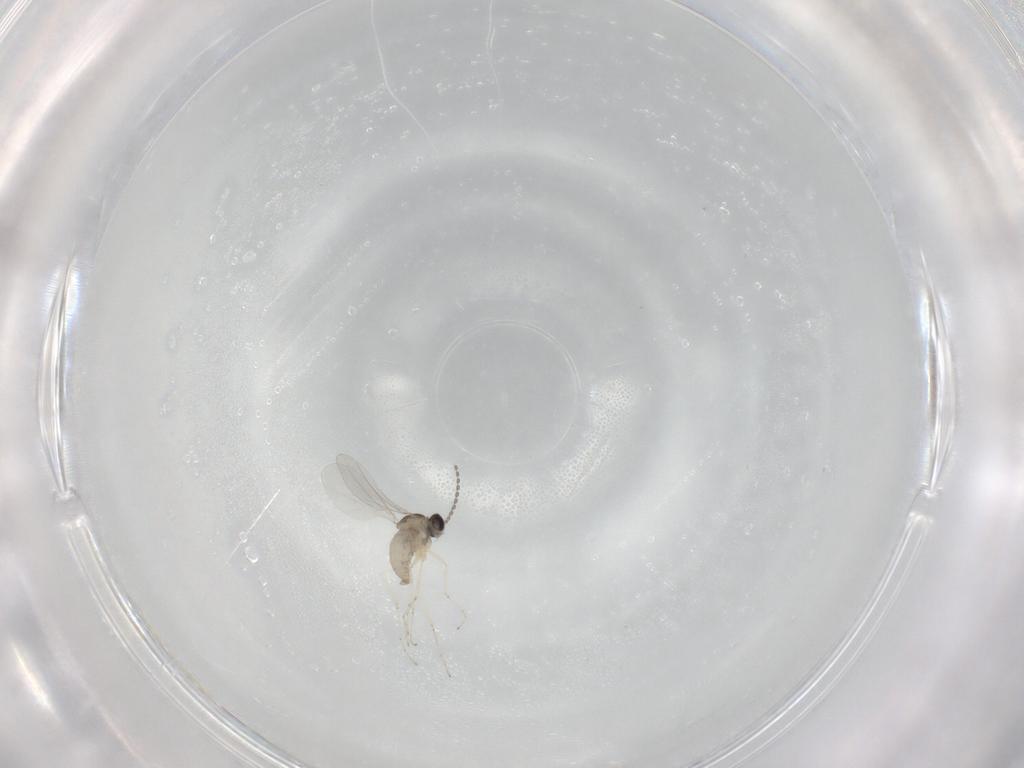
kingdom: Animalia
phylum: Arthropoda
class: Insecta
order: Diptera
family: Cecidomyiidae
